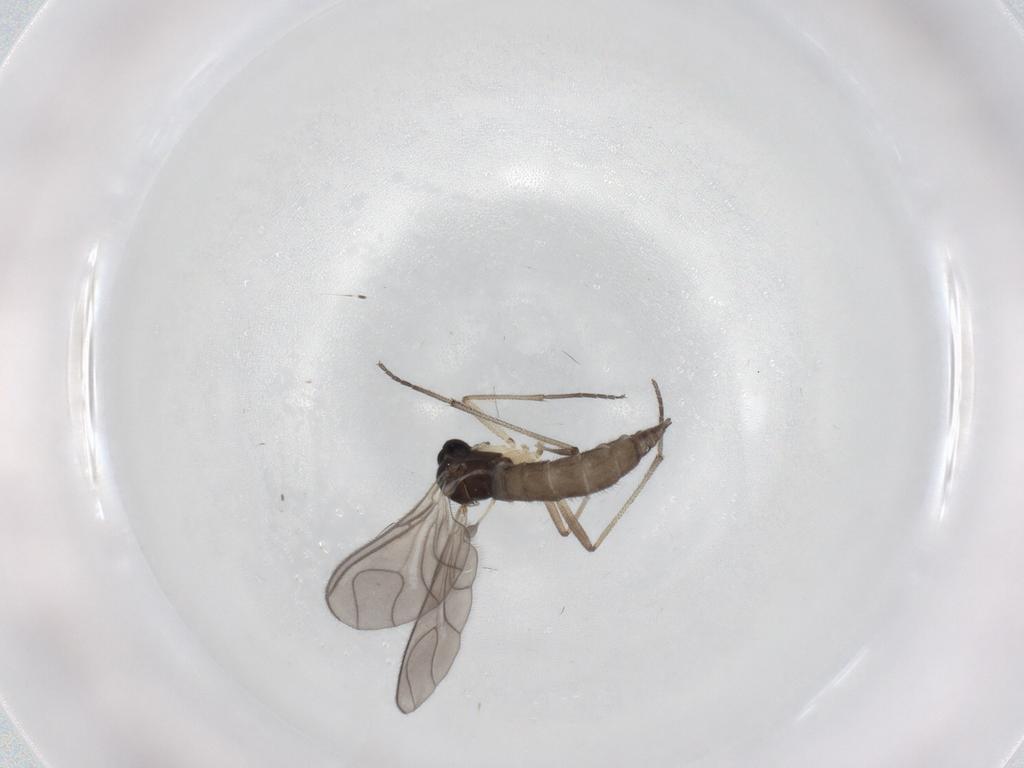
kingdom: Animalia
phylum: Arthropoda
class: Insecta
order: Diptera
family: Sciaridae
